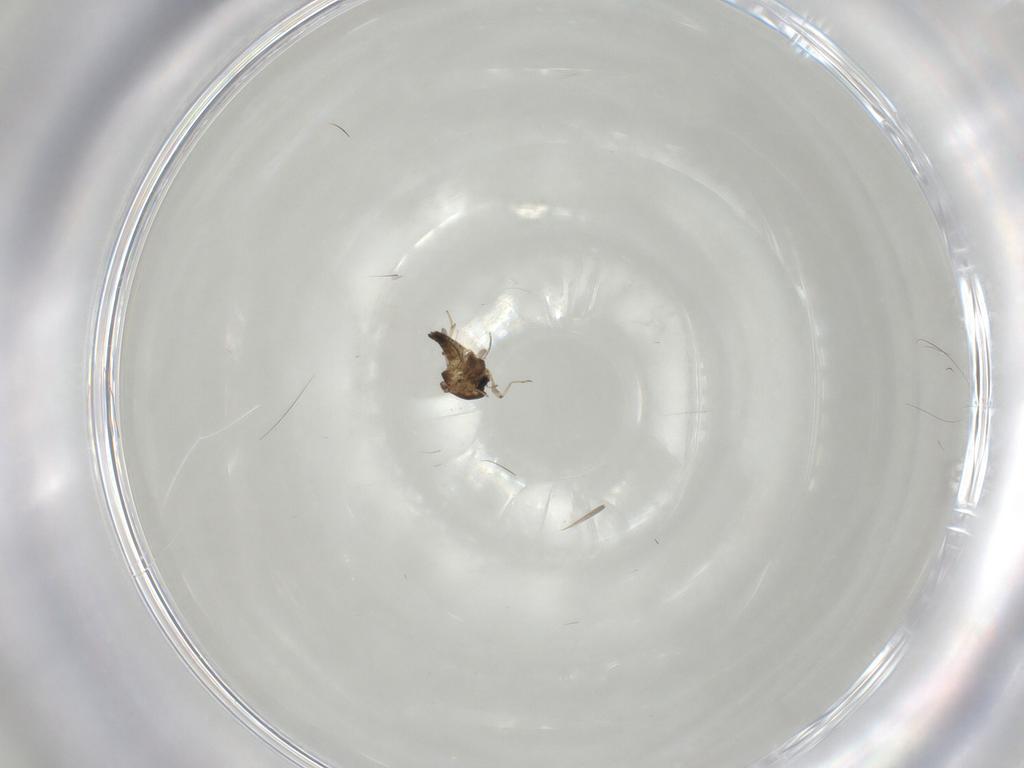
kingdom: Animalia
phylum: Arthropoda
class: Insecta
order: Diptera
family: Chironomidae
